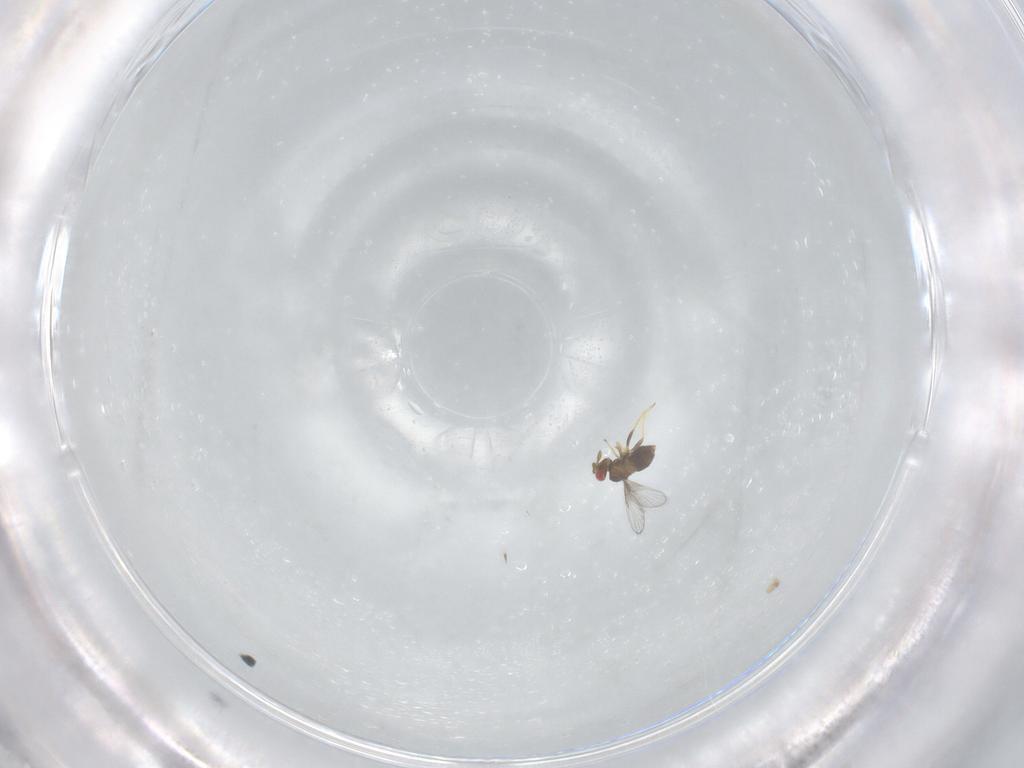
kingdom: Animalia
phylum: Arthropoda
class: Insecta
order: Hymenoptera
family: Trichogrammatidae
